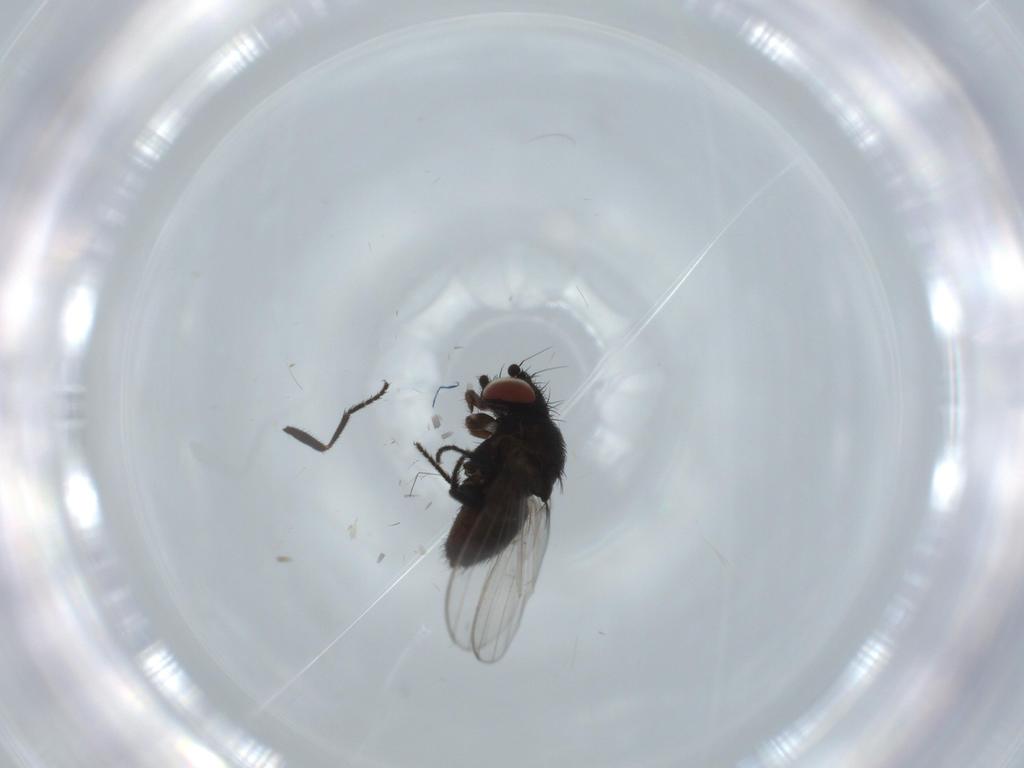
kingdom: Animalia
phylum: Arthropoda
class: Insecta
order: Diptera
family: Milichiidae
